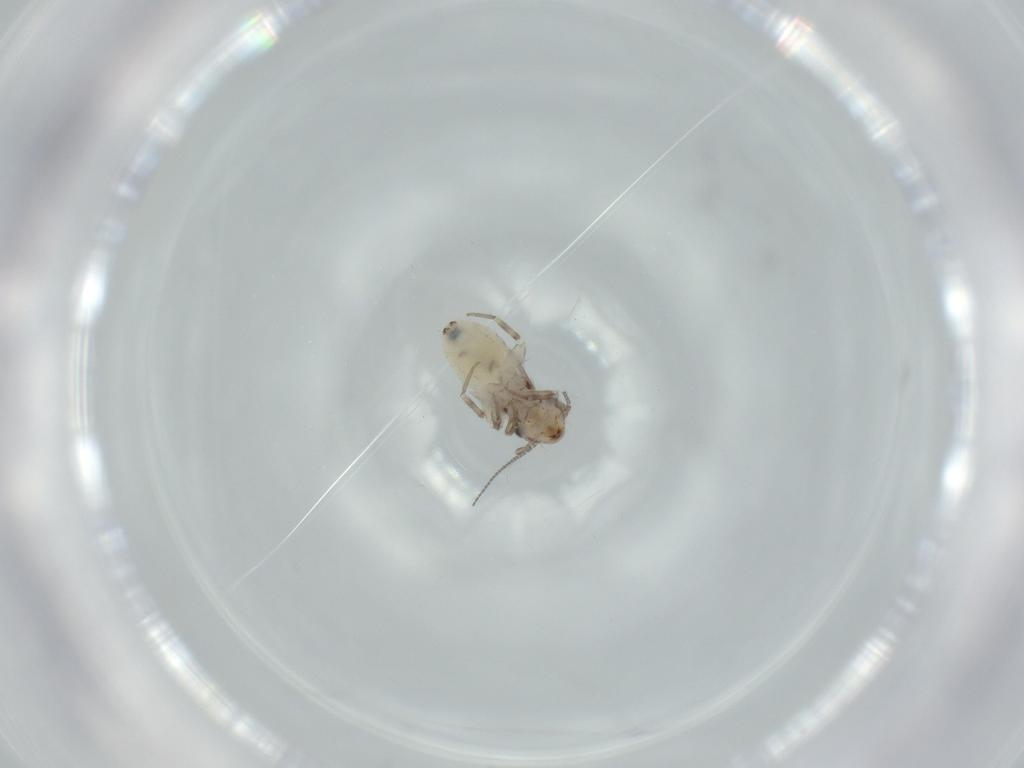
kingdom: Animalia
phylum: Arthropoda
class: Insecta
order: Psocodea
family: Lepidopsocidae
